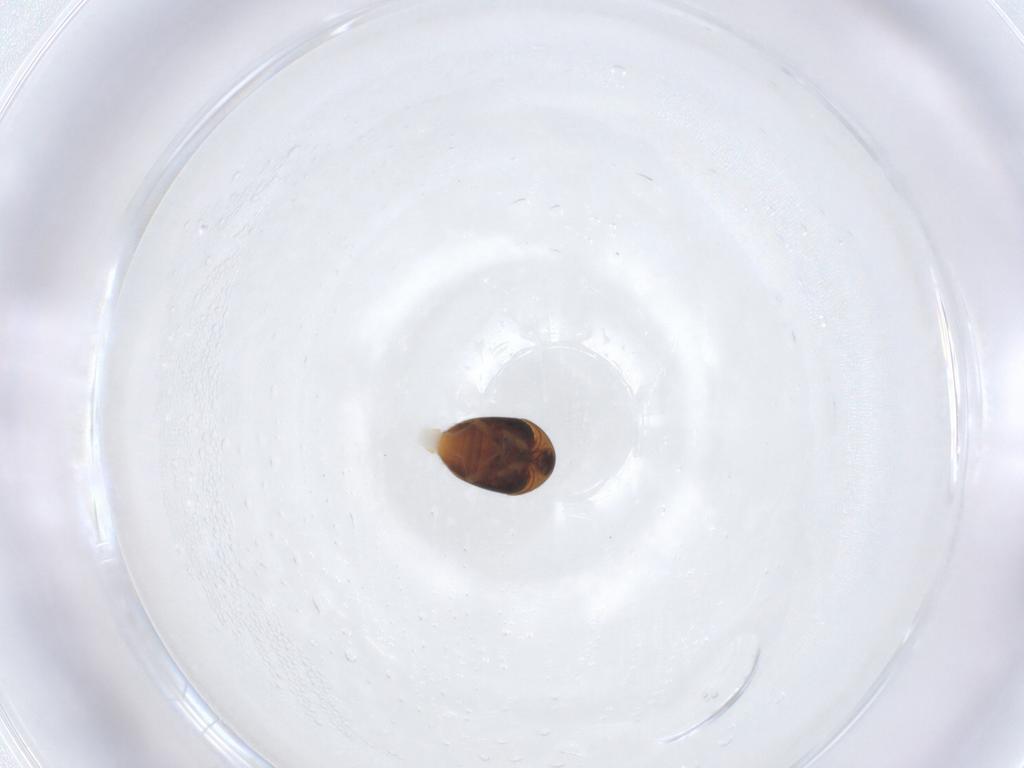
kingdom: Animalia
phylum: Arthropoda
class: Insecta
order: Coleoptera
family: Corylophidae
